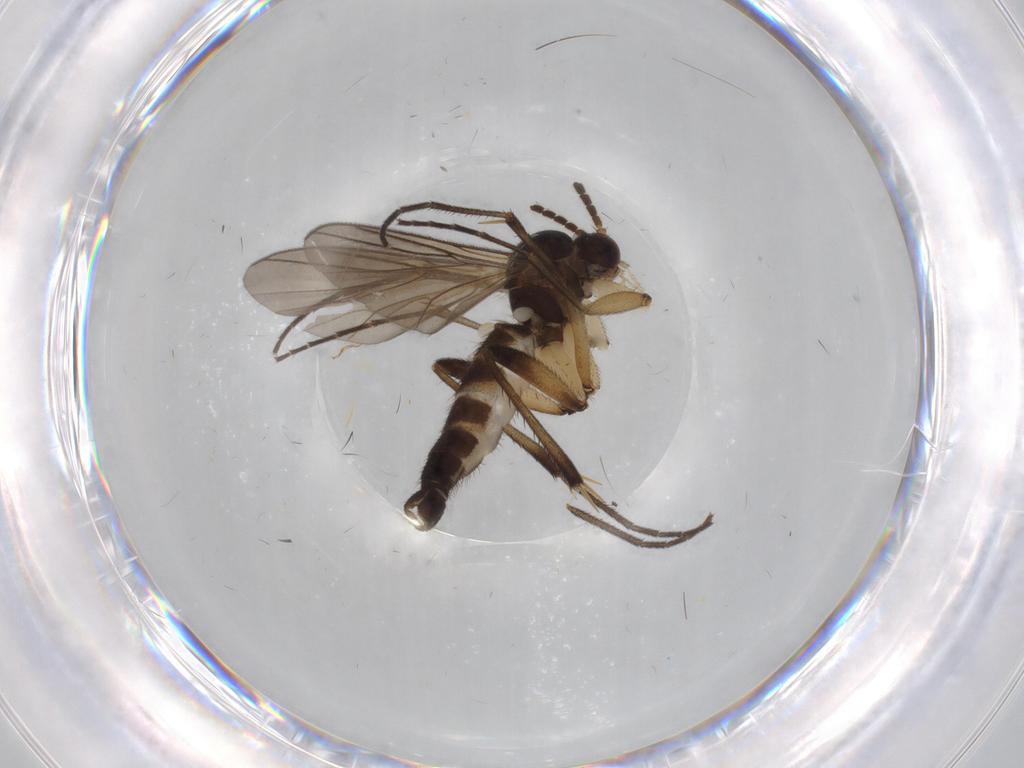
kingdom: Animalia
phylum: Arthropoda
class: Insecta
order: Diptera
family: Mycetophilidae
